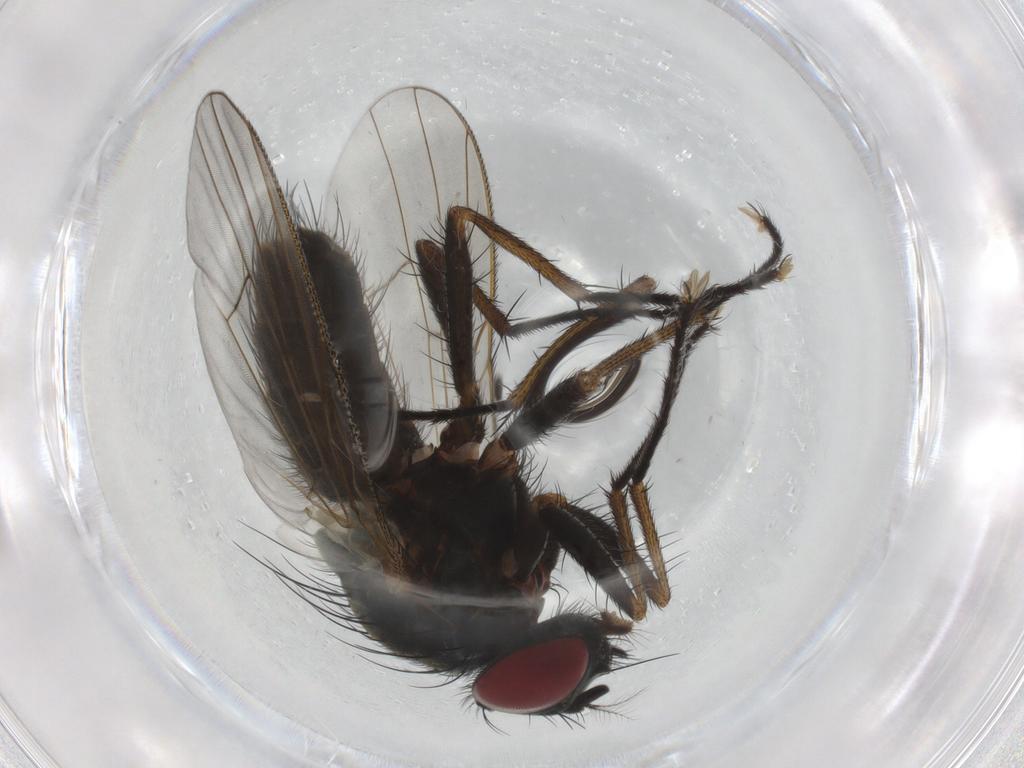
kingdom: Animalia
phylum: Arthropoda
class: Insecta
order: Diptera
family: Muscidae
